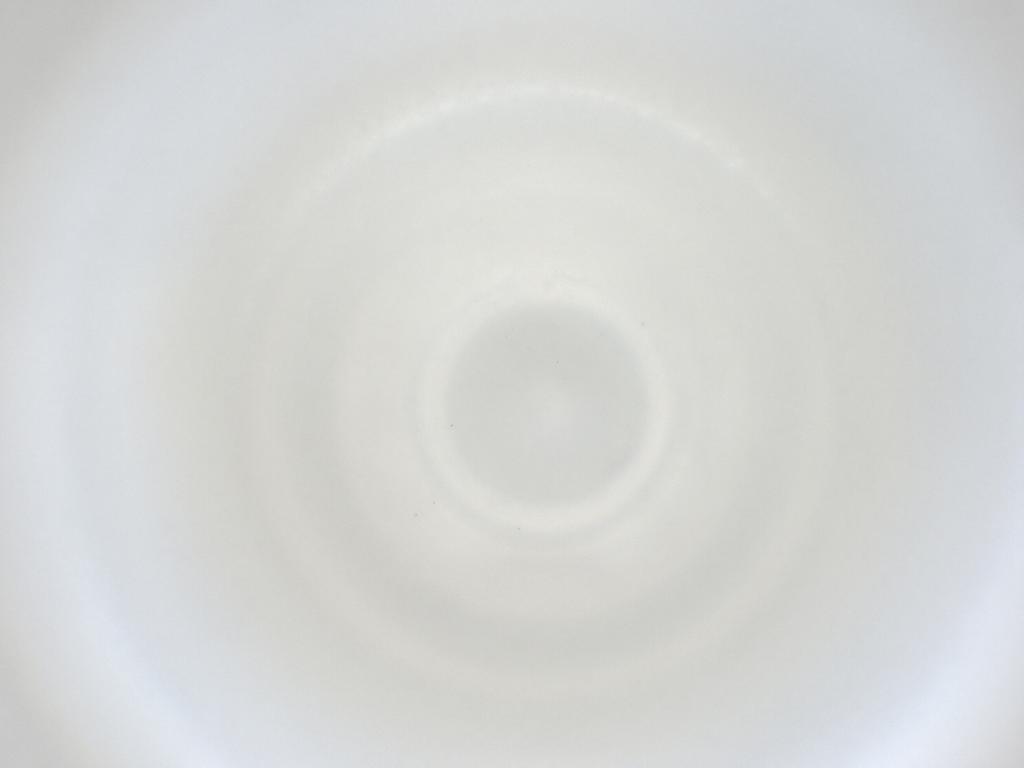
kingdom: Animalia
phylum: Arthropoda
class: Insecta
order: Diptera
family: Cecidomyiidae
